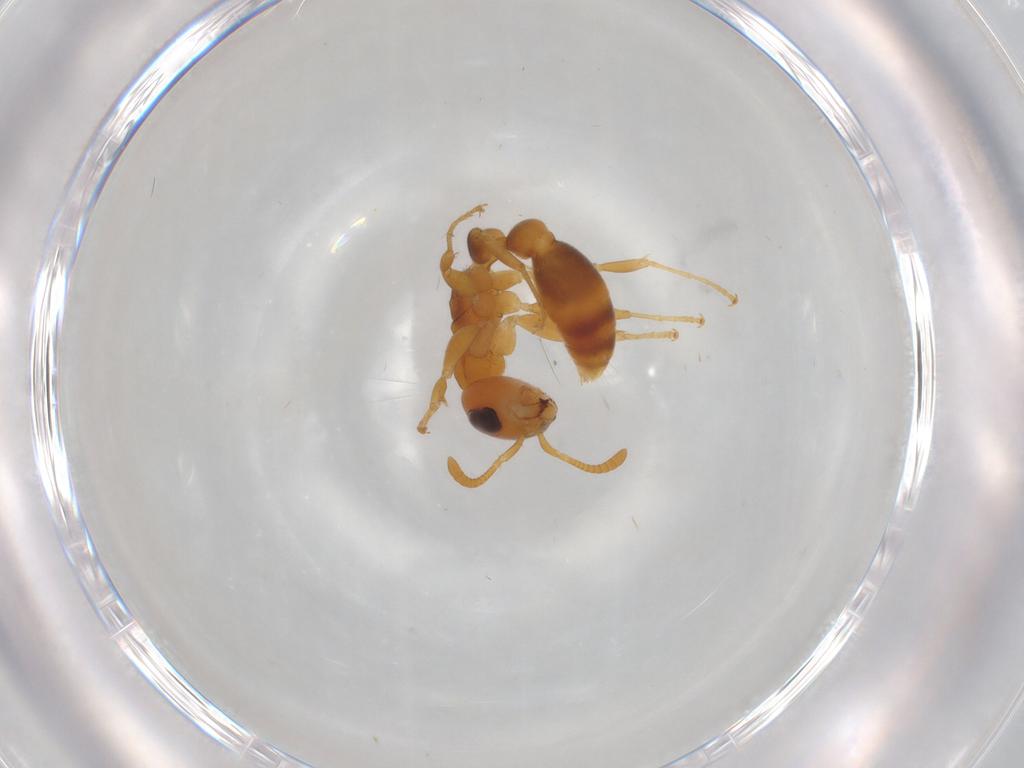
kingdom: Animalia
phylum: Arthropoda
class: Insecta
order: Hymenoptera
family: Formicidae
